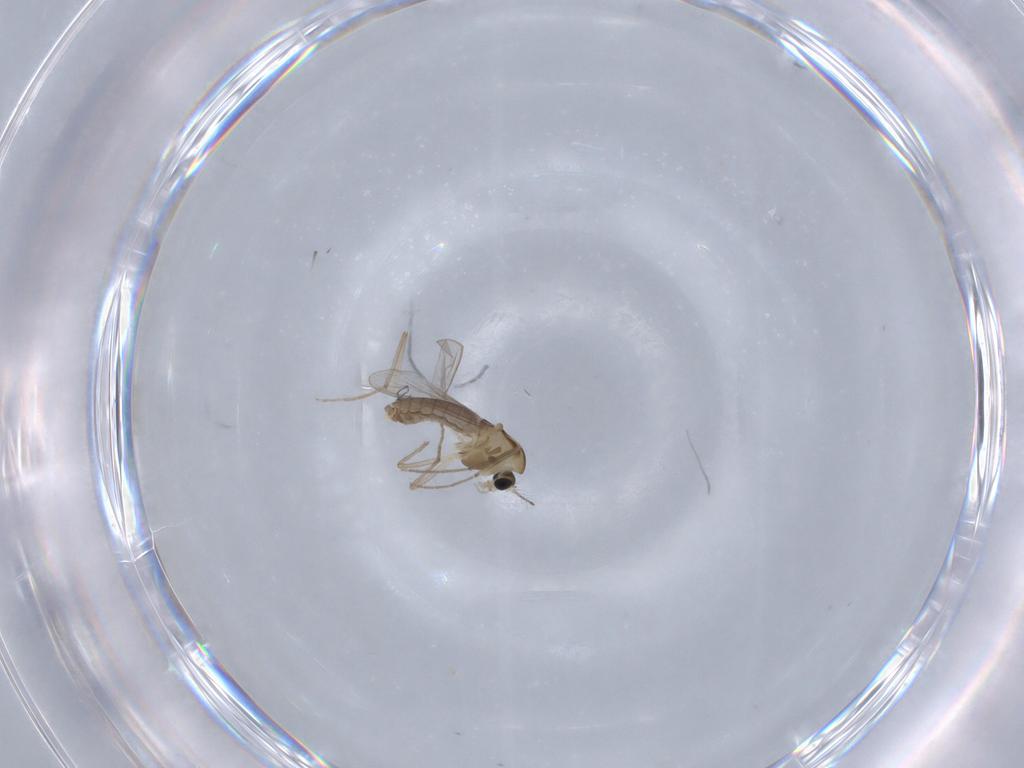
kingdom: Animalia
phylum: Arthropoda
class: Insecta
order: Diptera
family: Chironomidae
